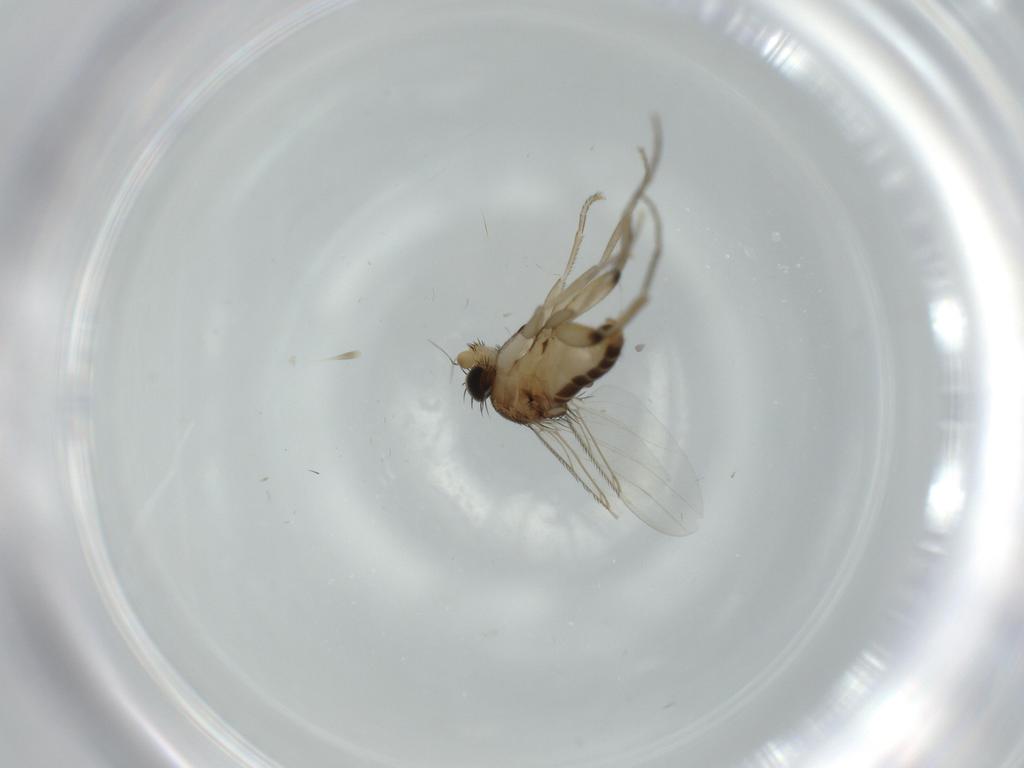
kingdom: Animalia
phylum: Arthropoda
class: Insecta
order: Diptera
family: Phoridae
